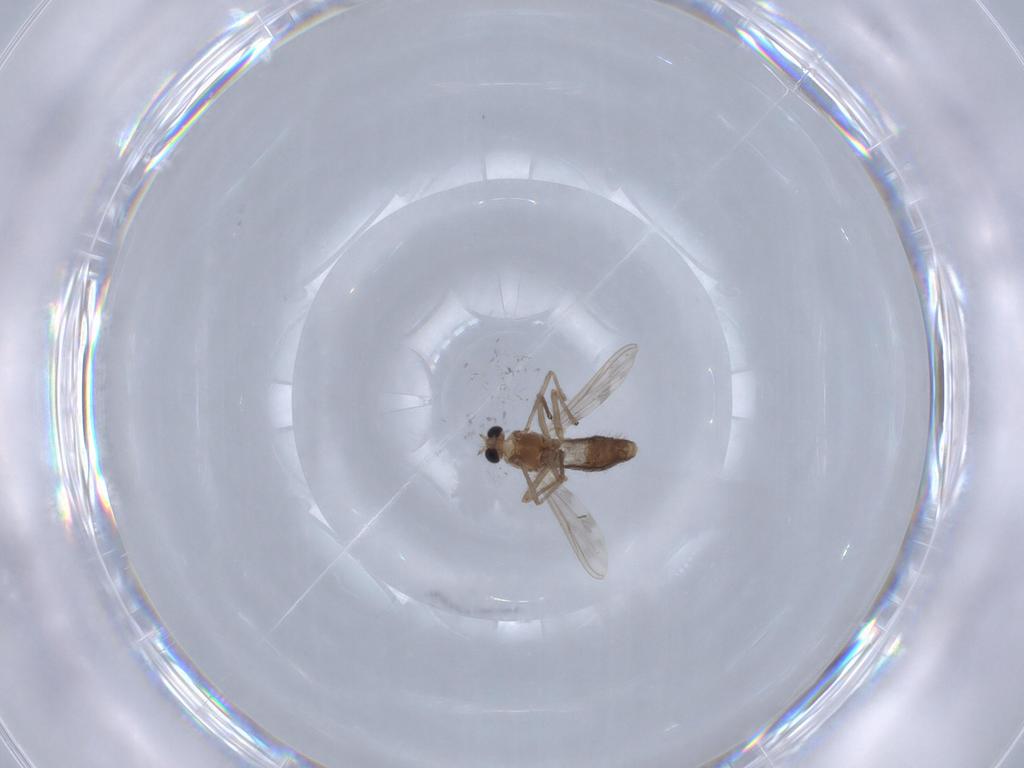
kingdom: Animalia
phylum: Arthropoda
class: Insecta
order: Diptera
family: Chironomidae
